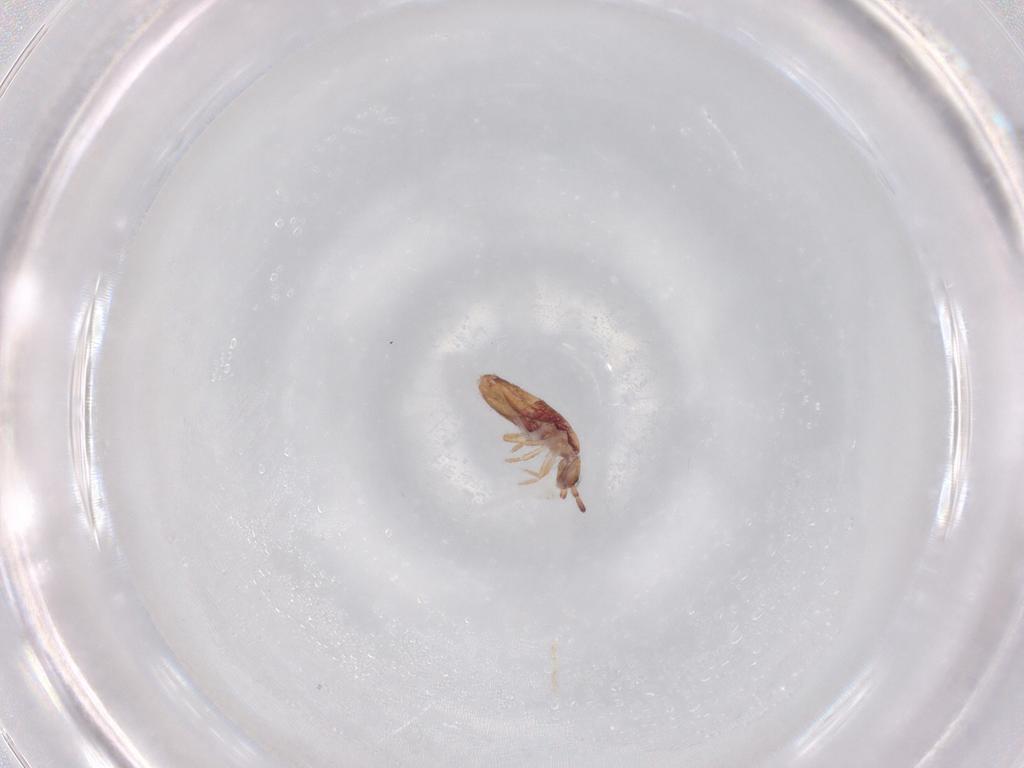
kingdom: Animalia
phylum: Arthropoda
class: Collembola
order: Poduromorpha
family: Hypogastruridae
